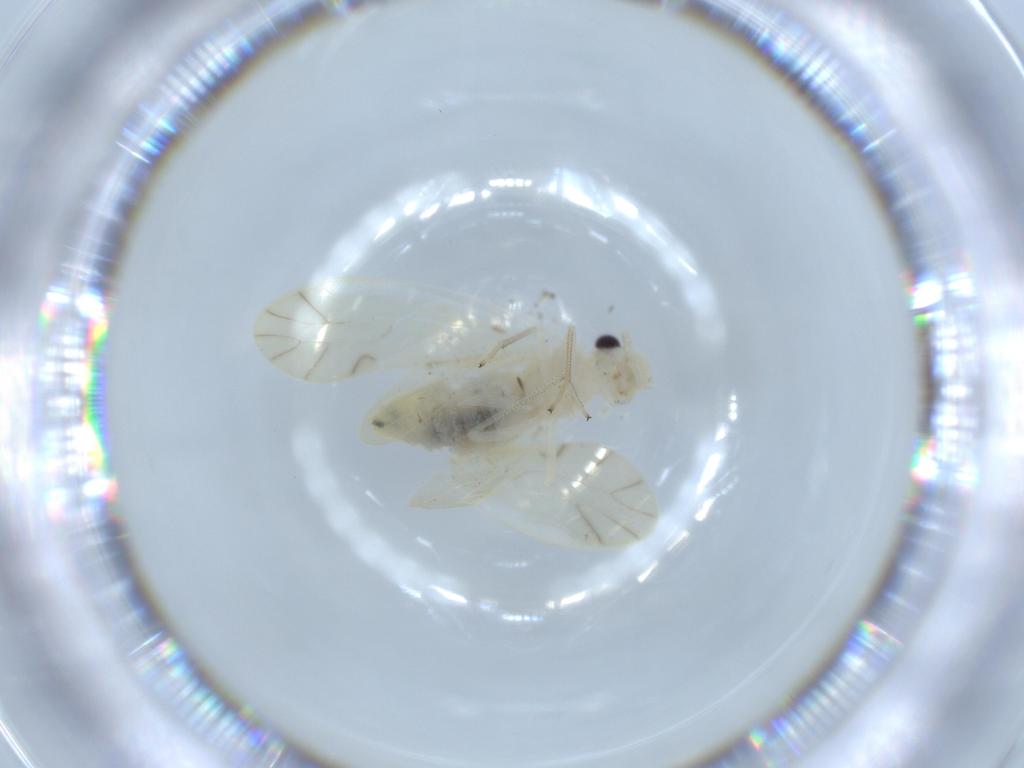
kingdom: Animalia
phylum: Arthropoda
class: Insecta
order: Psocodea
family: Caeciliusidae
